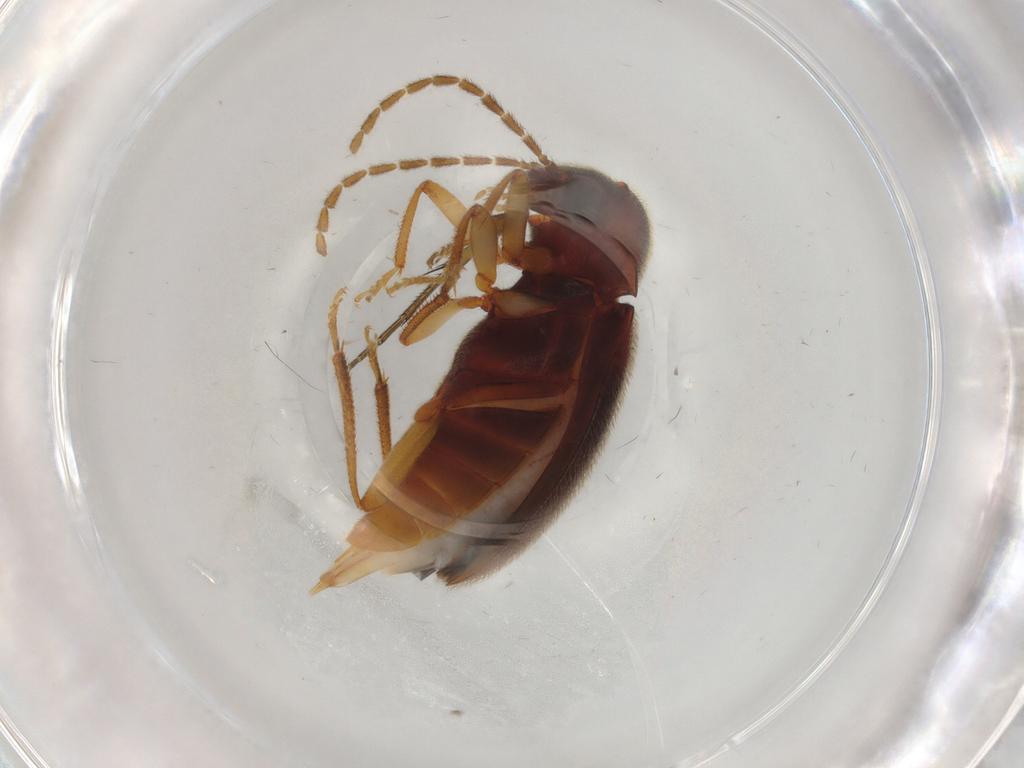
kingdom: Animalia
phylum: Arthropoda
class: Insecta
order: Coleoptera
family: Ptilodactylidae
